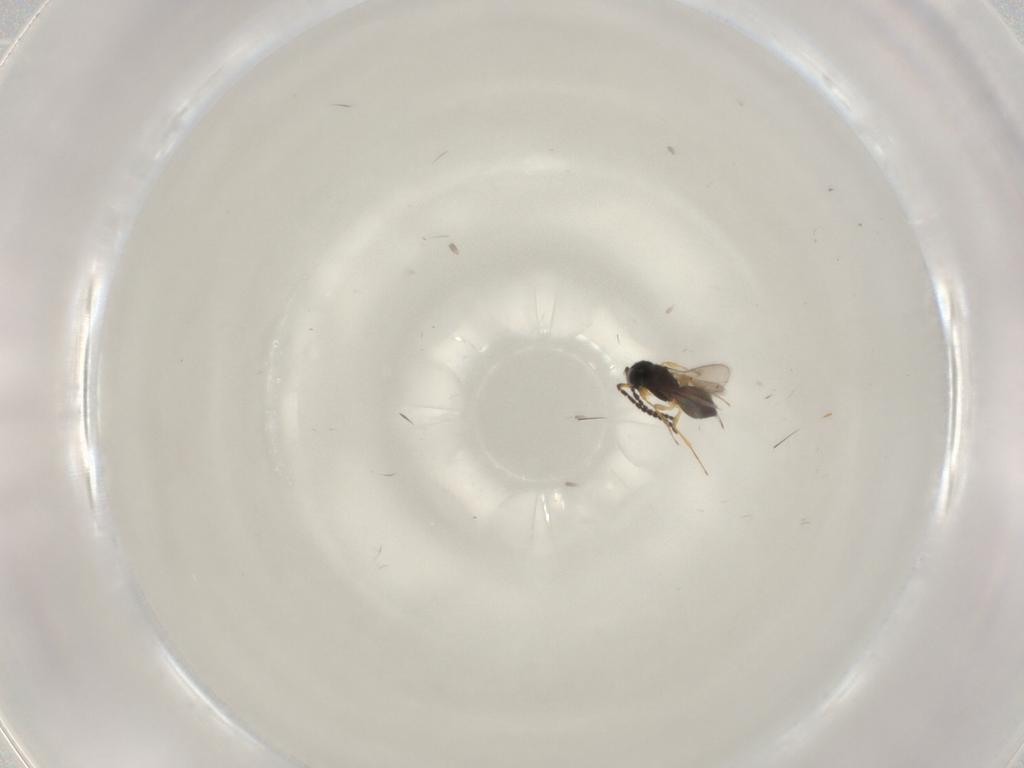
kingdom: Animalia
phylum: Arthropoda
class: Insecta
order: Hymenoptera
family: Scelionidae
